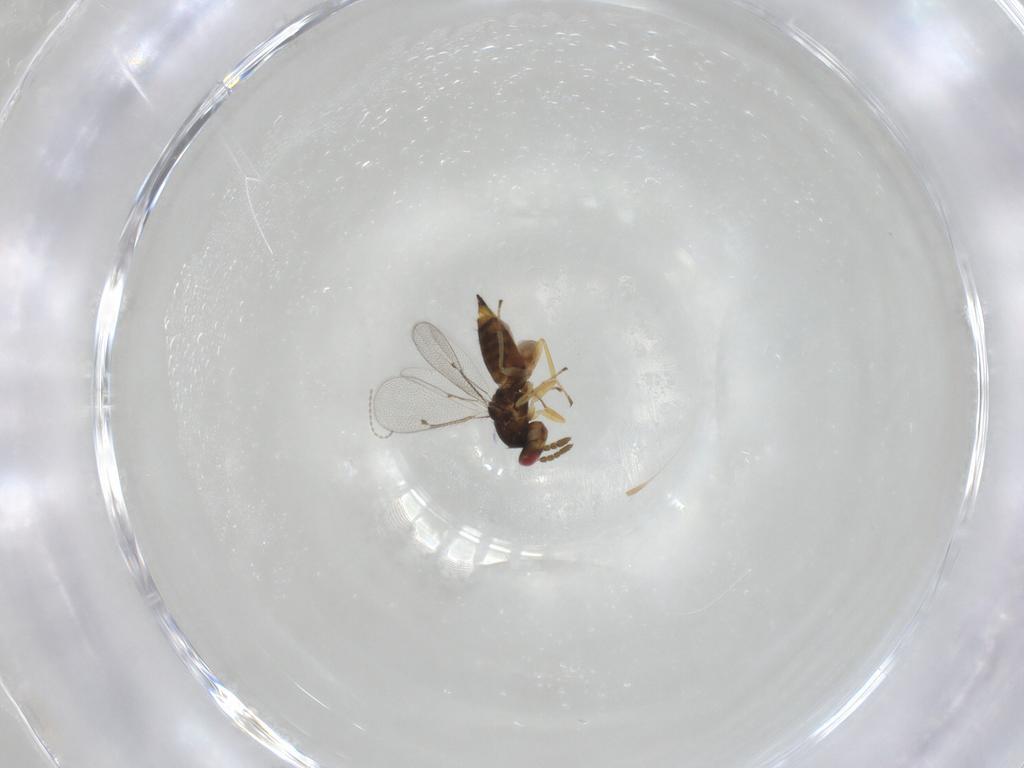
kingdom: Animalia
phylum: Arthropoda
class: Insecta
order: Hymenoptera
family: Eulophidae
